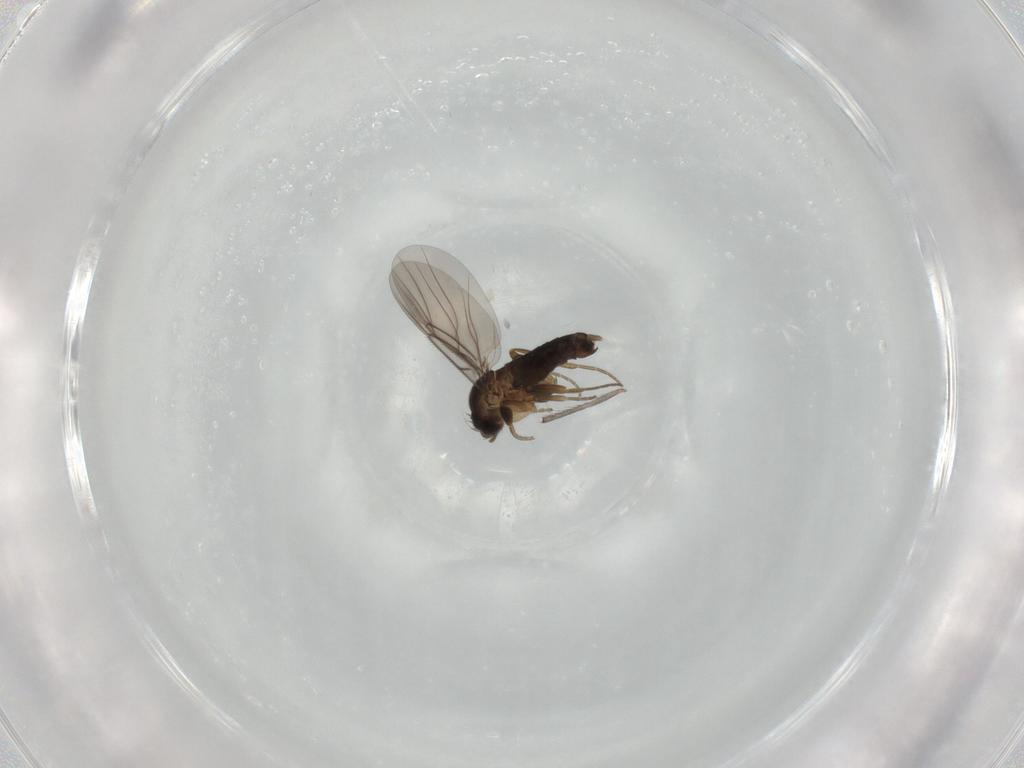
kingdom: Animalia
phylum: Arthropoda
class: Insecta
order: Diptera
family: Phoridae
